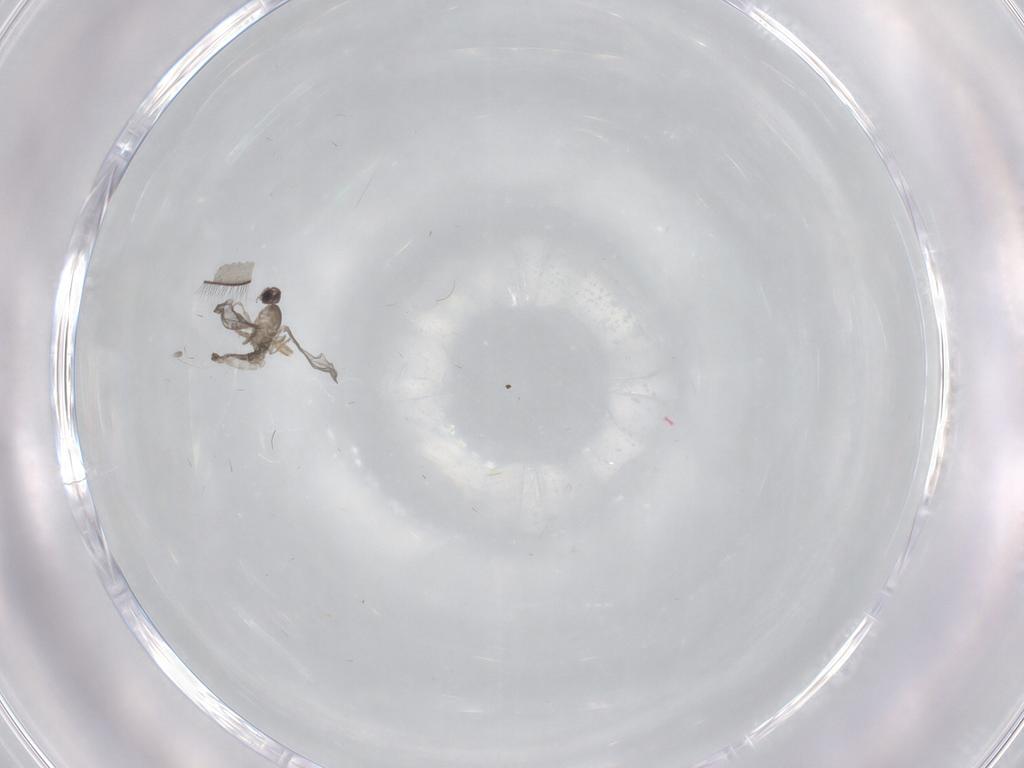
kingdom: Animalia
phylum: Arthropoda
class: Insecta
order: Diptera
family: Cecidomyiidae
